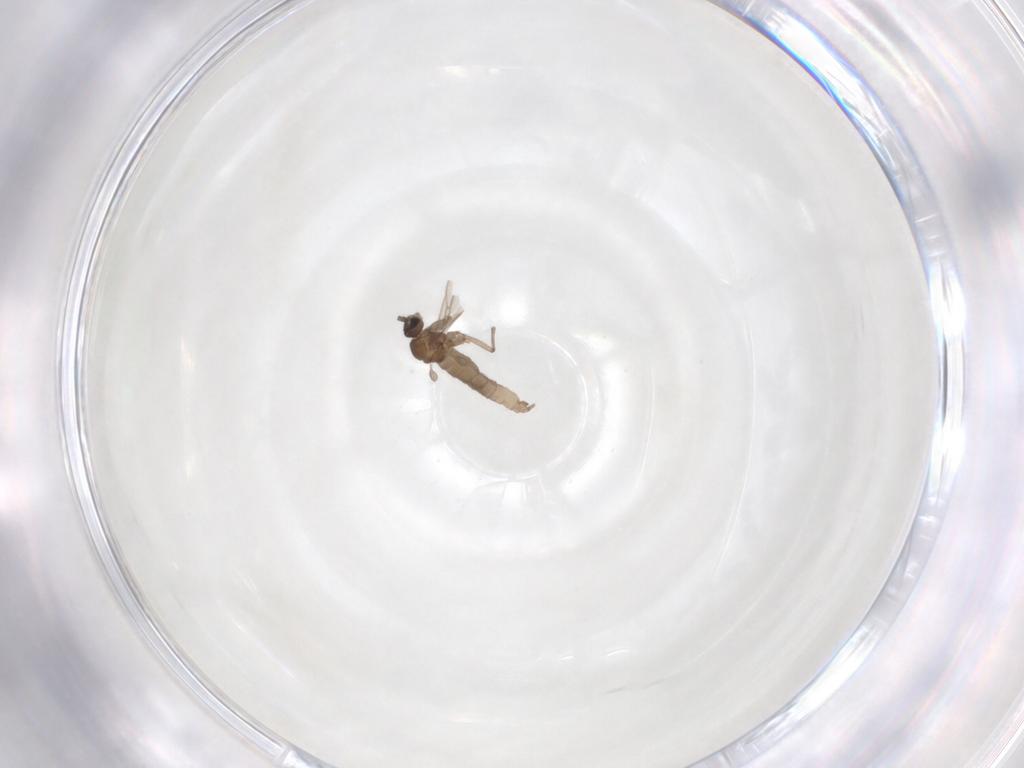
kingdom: Animalia
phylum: Arthropoda
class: Insecta
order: Diptera
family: Sciaridae
